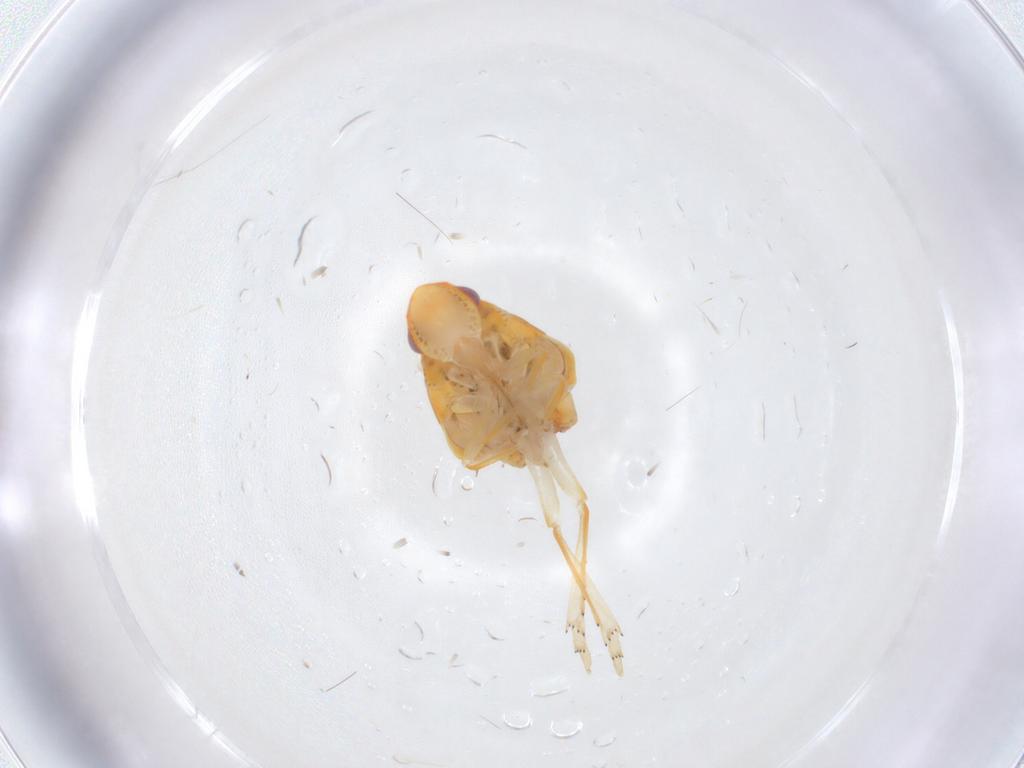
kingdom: Animalia
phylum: Arthropoda
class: Insecta
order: Hemiptera
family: Ricaniidae
